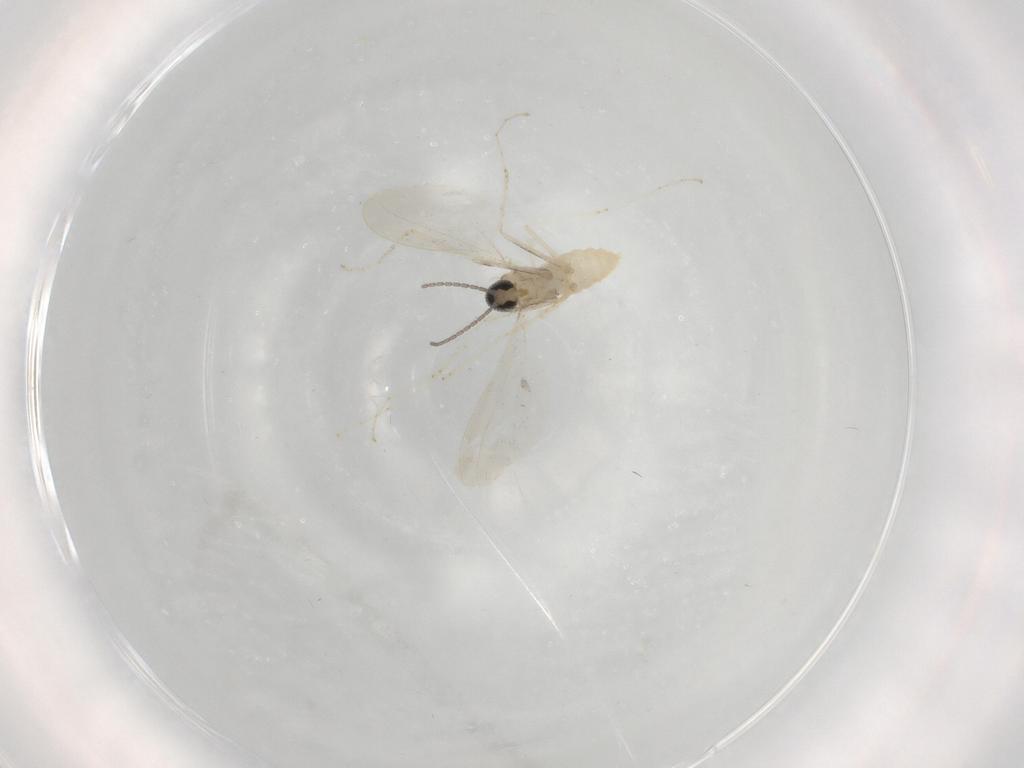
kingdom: Animalia
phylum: Arthropoda
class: Insecta
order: Diptera
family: Cecidomyiidae
